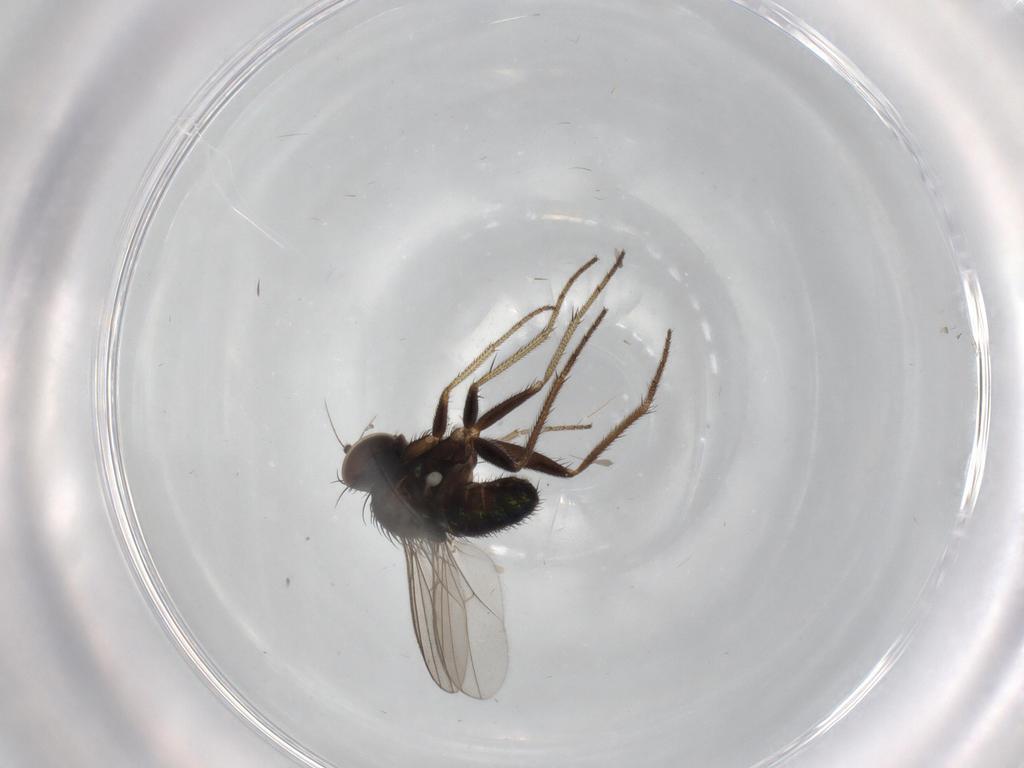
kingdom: Animalia
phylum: Arthropoda
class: Insecta
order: Diptera
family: Dolichopodidae
